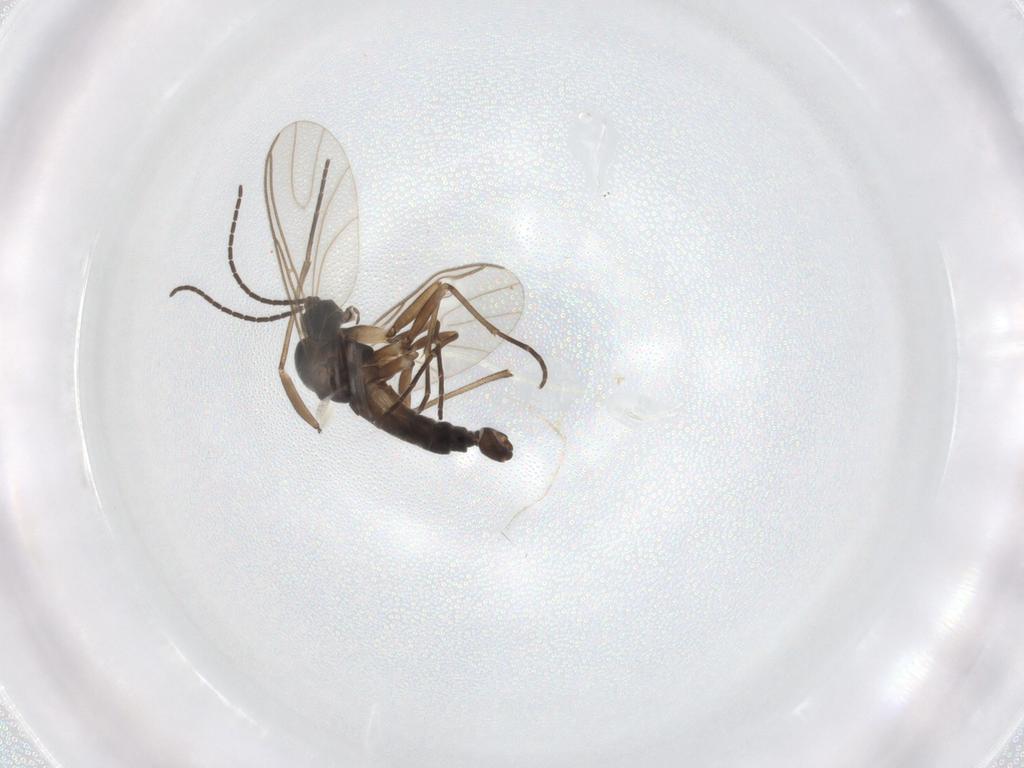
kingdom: Animalia
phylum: Arthropoda
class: Insecta
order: Diptera
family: Sciaridae
